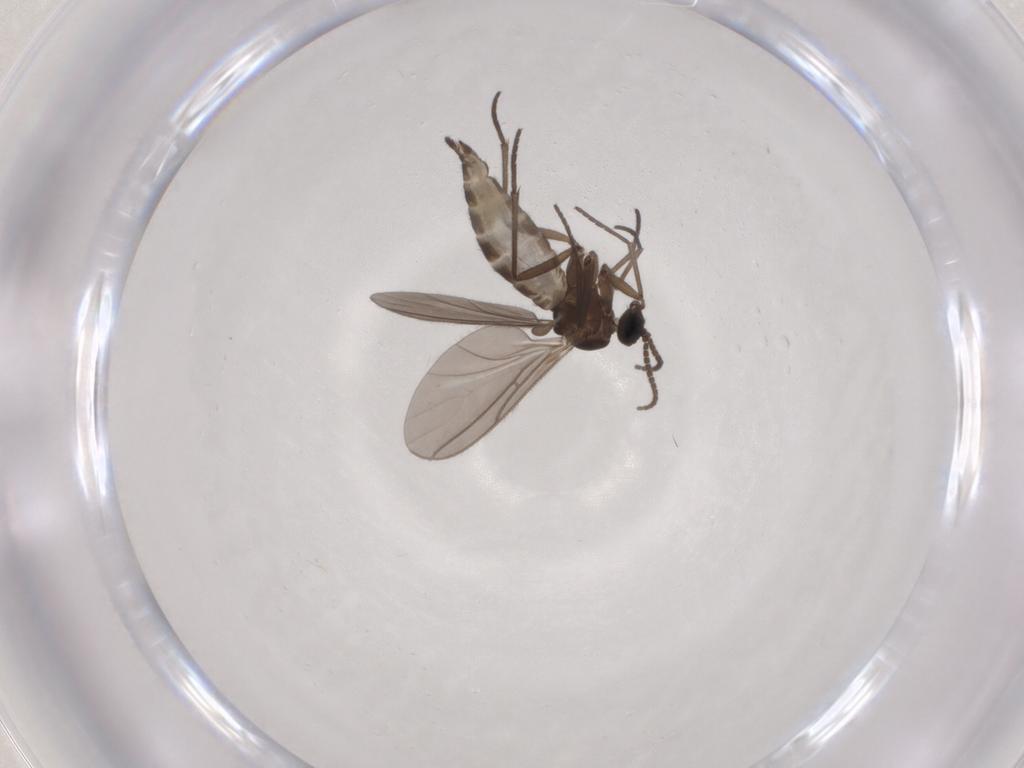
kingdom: Animalia
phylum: Arthropoda
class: Insecta
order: Diptera
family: Sciaridae
